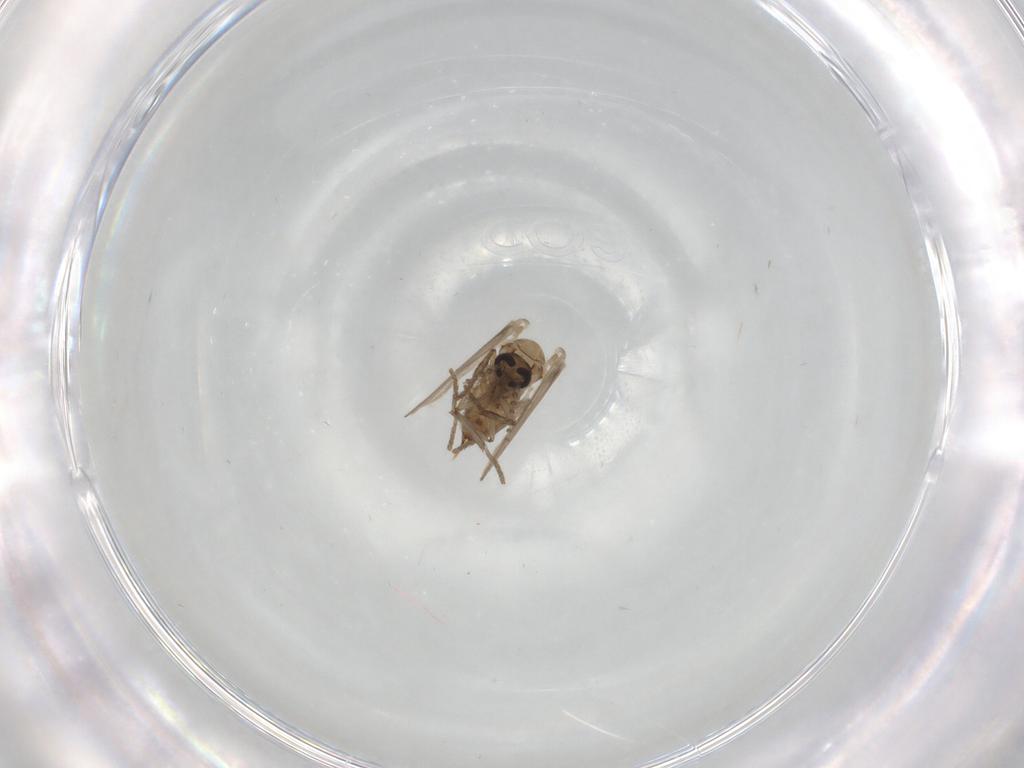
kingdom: Animalia
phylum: Arthropoda
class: Insecta
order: Diptera
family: Psychodidae
